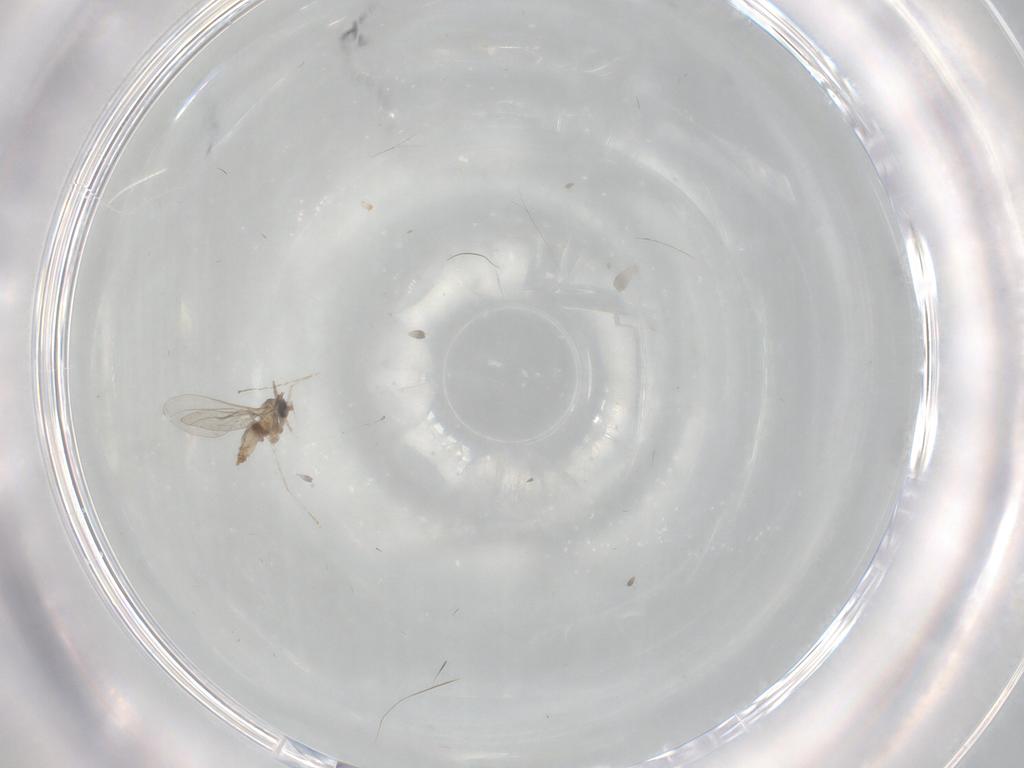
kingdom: Animalia
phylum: Arthropoda
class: Insecta
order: Diptera
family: Cecidomyiidae
